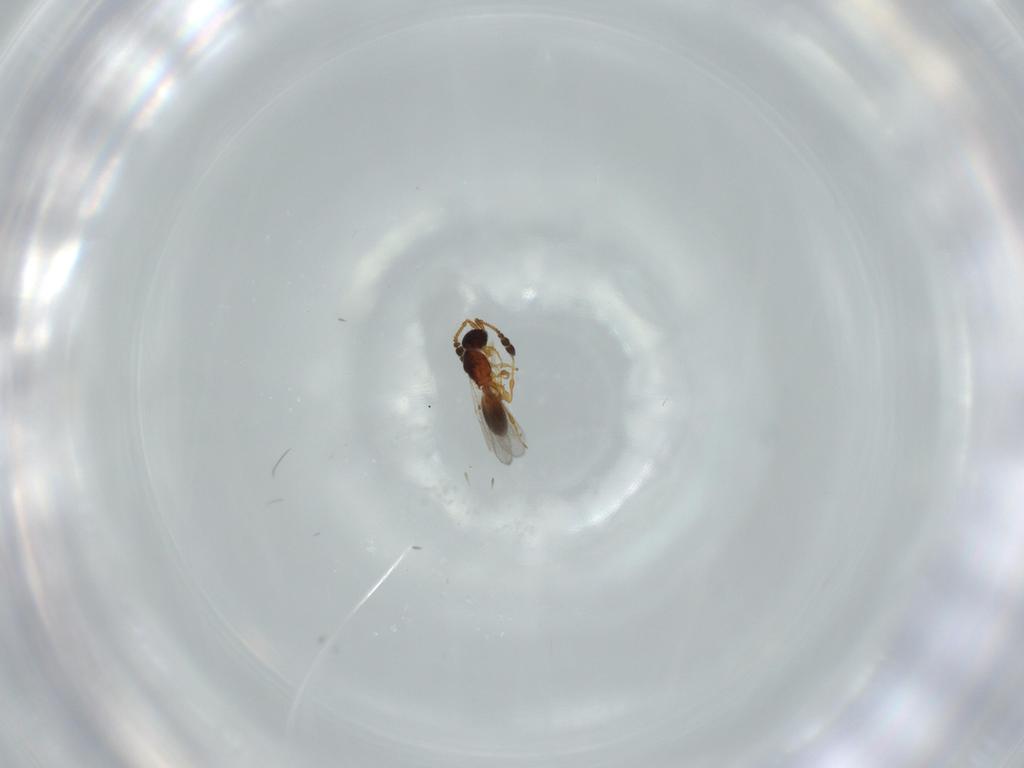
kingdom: Animalia
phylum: Arthropoda
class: Insecta
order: Hymenoptera
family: Diapriidae
